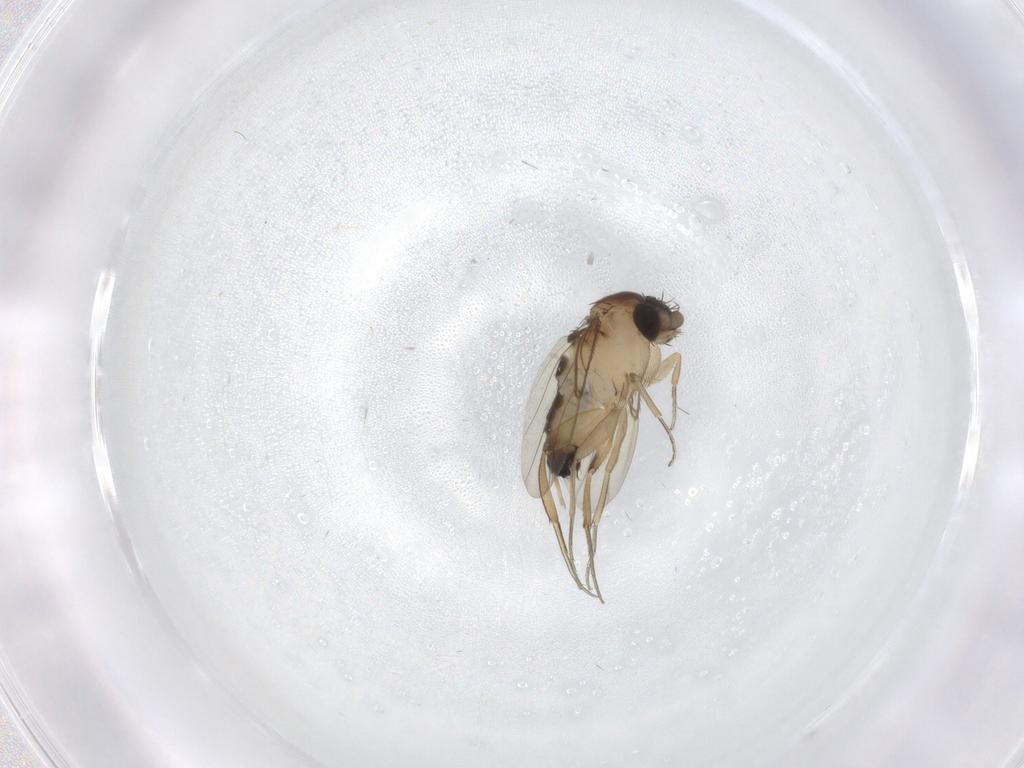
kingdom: Animalia
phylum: Arthropoda
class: Insecta
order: Diptera
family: Phoridae
